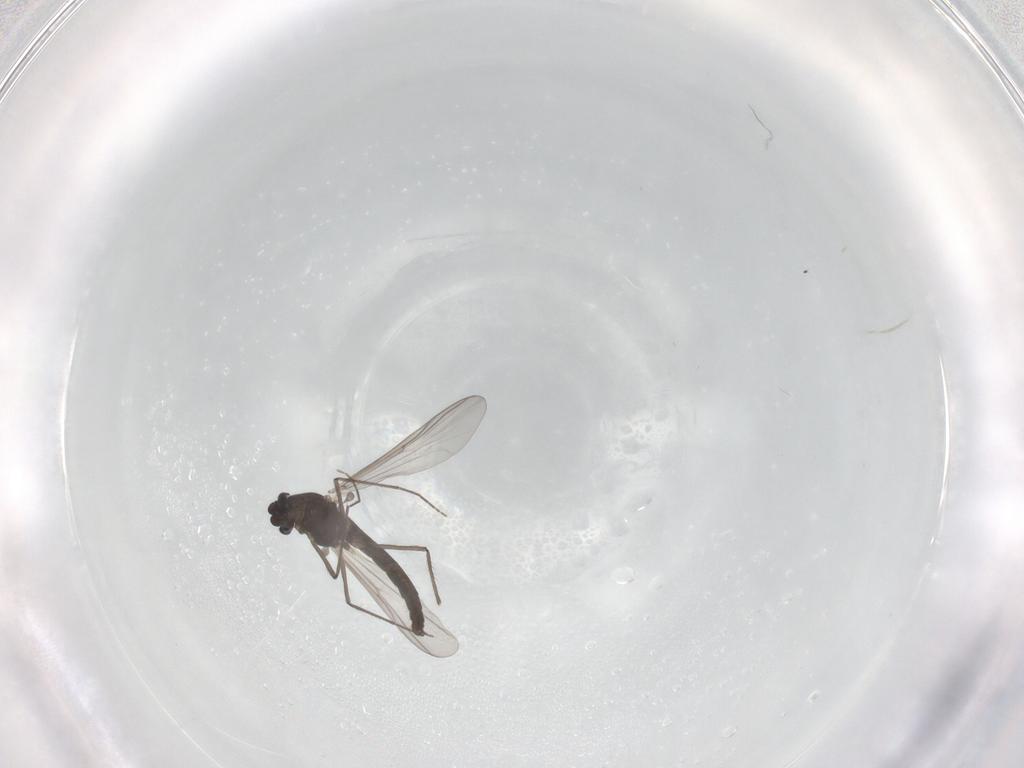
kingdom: Animalia
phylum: Arthropoda
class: Insecta
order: Diptera
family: Chironomidae
